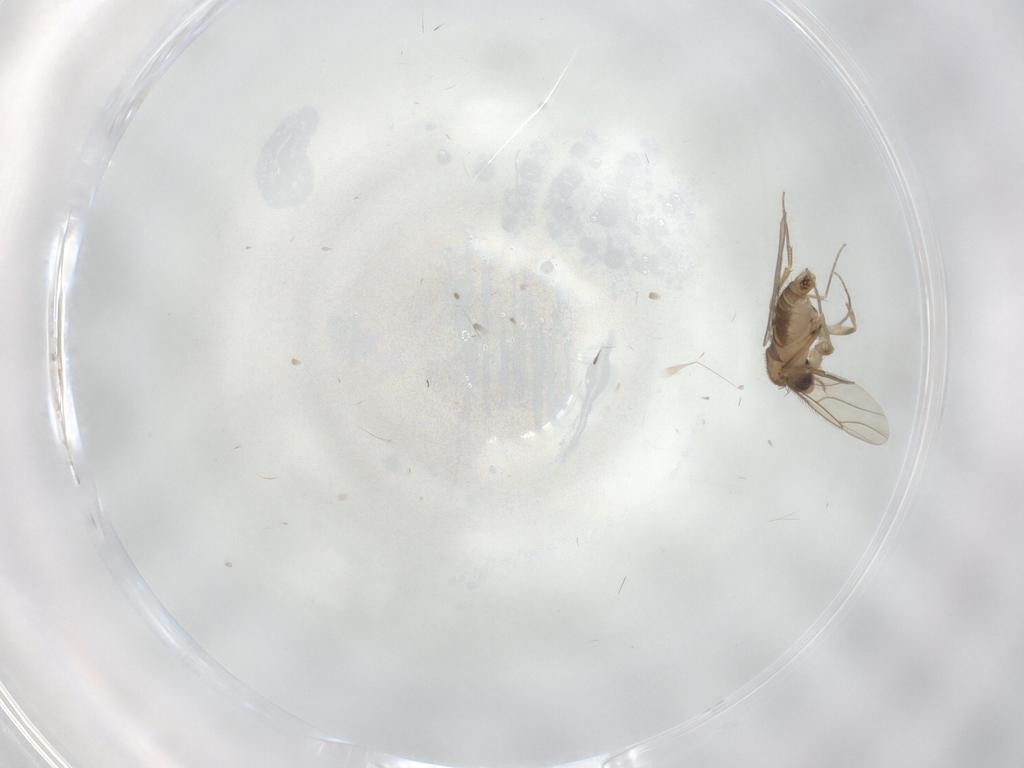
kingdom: Animalia
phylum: Arthropoda
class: Insecta
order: Diptera
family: Phoridae
